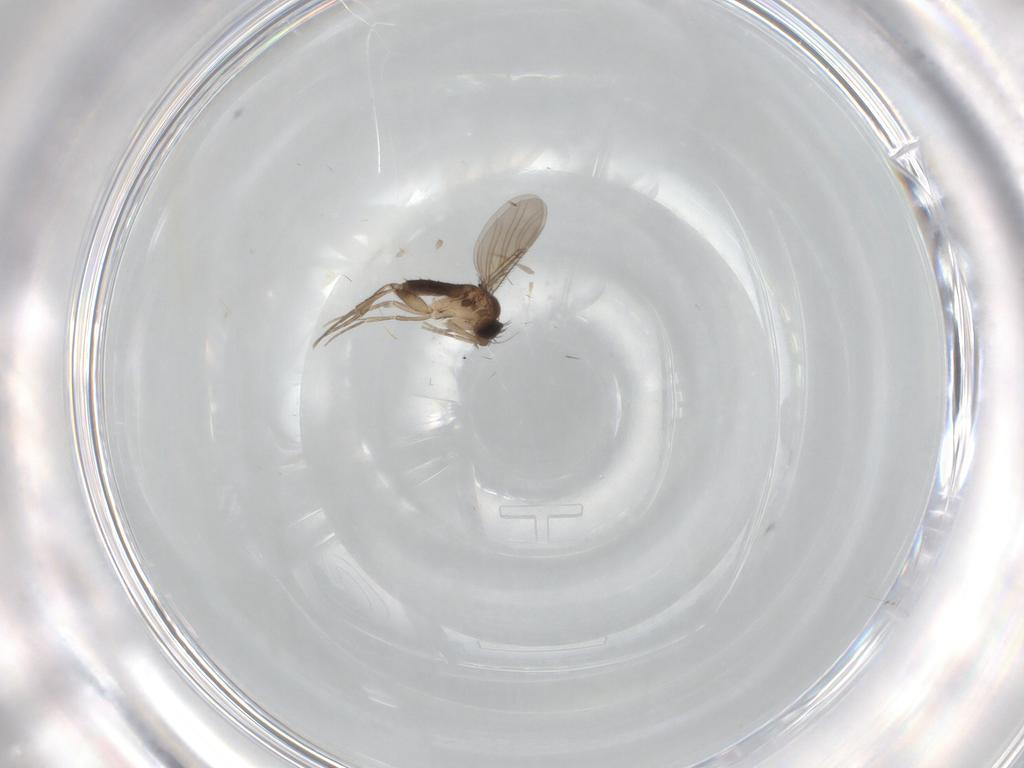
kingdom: Animalia
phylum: Arthropoda
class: Insecta
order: Diptera
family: Phoridae
